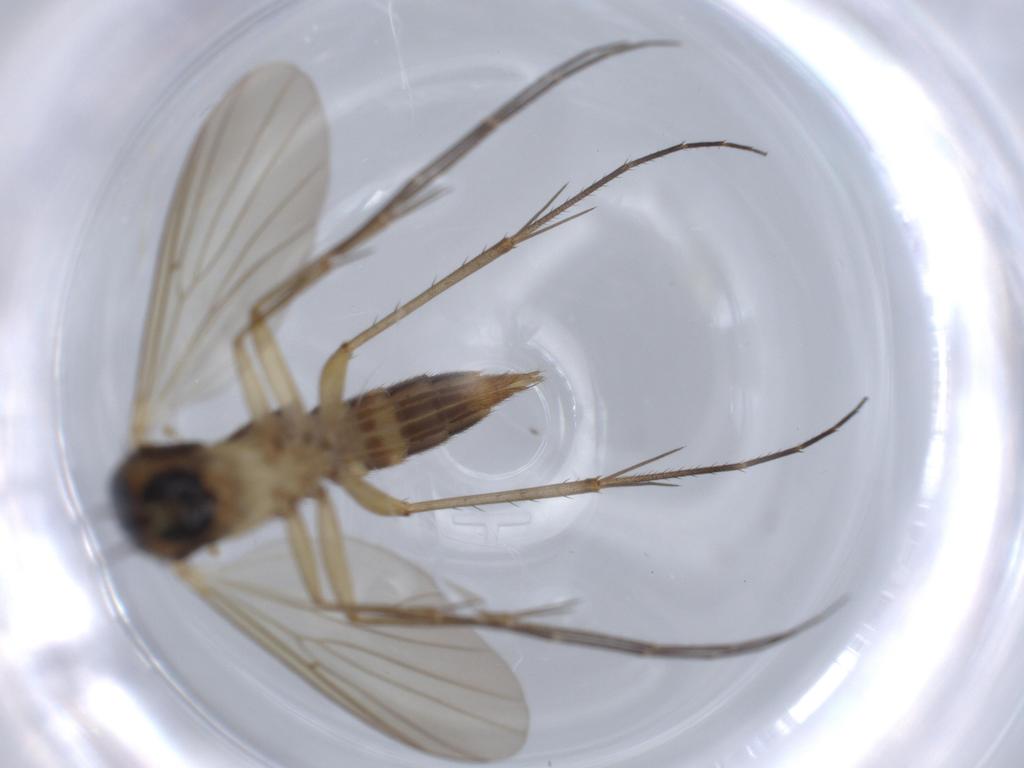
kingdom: Animalia
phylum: Arthropoda
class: Insecta
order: Diptera
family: Muscidae
